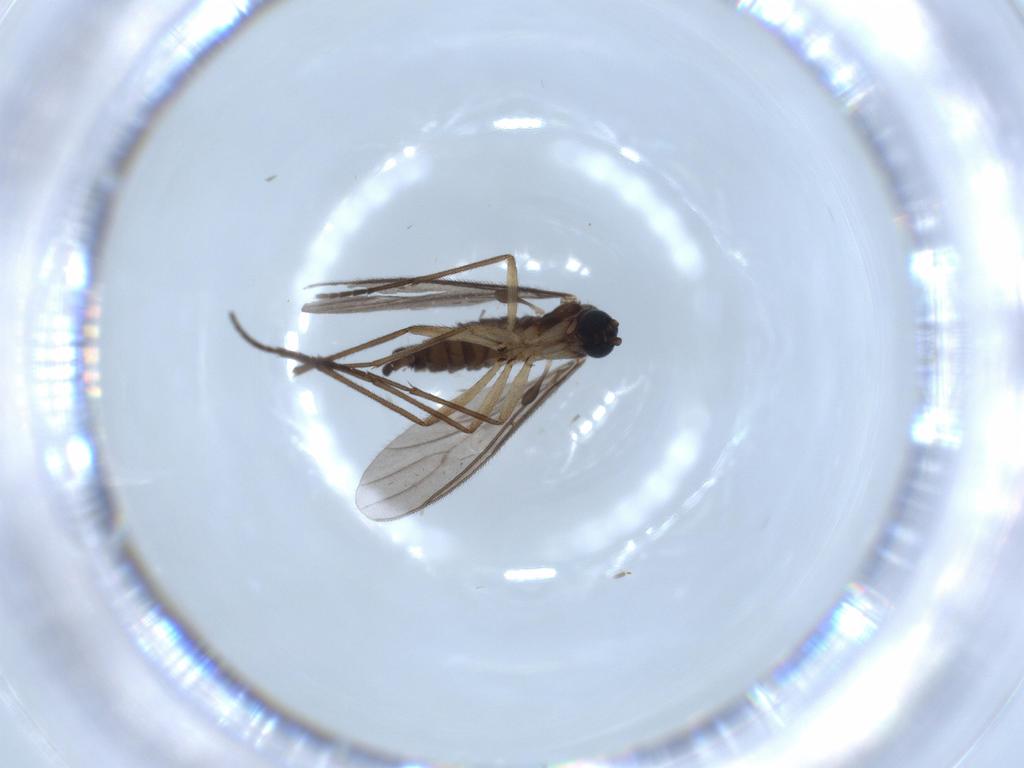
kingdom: Animalia
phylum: Arthropoda
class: Insecta
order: Diptera
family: Sciaridae
